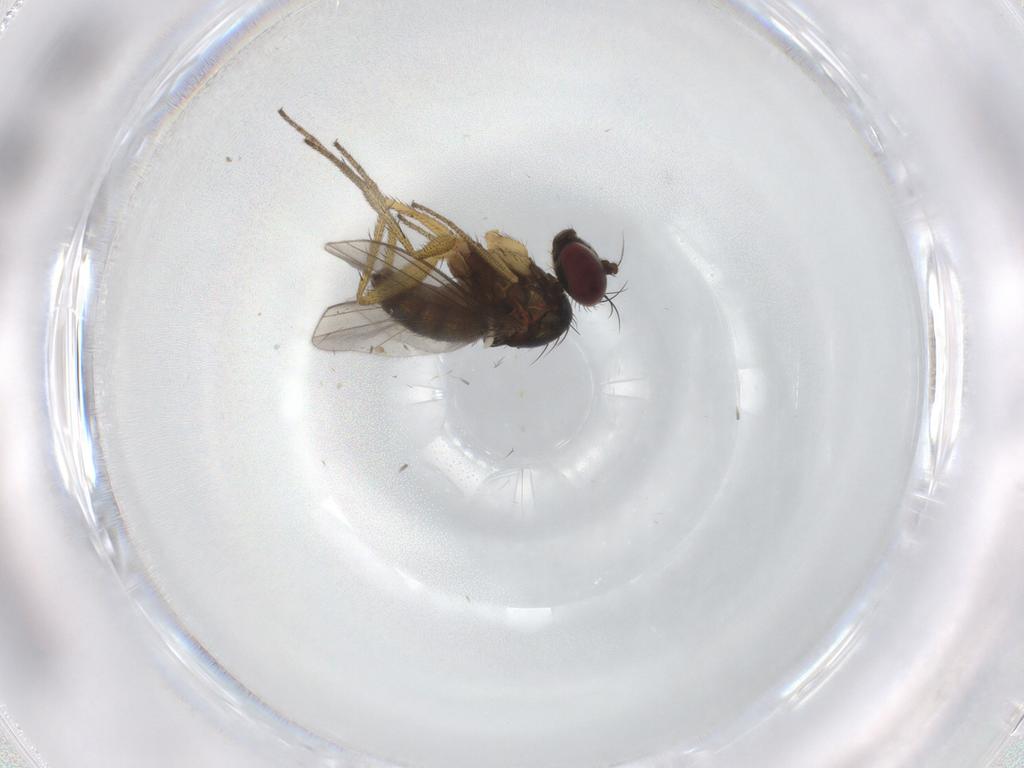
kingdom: Animalia
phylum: Arthropoda
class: Insecta
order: Diptera
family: Dolichopodidae
